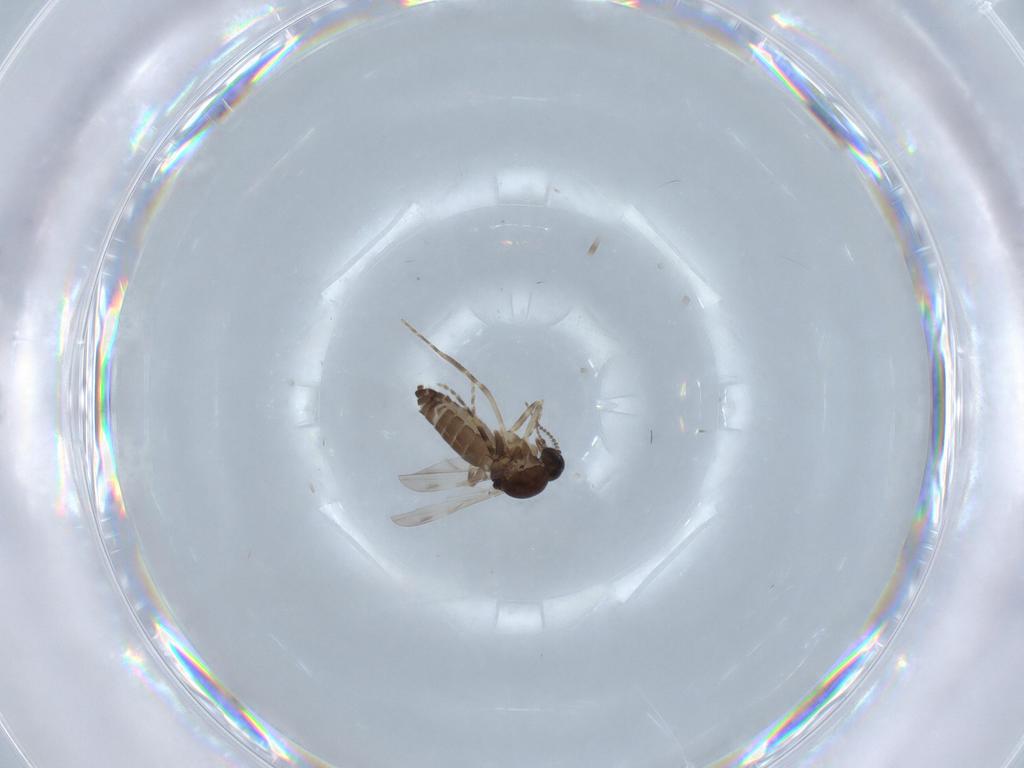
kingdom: Animalia
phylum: Arthropoda
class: Insecta
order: Diptera
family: Ceratopogonidae
